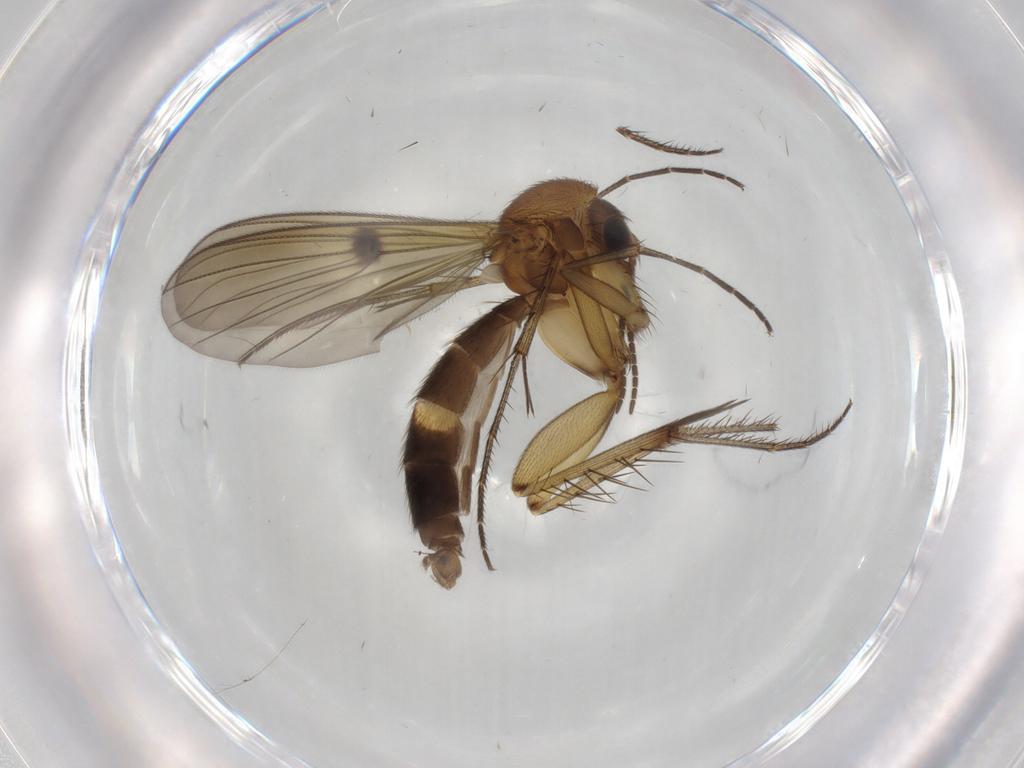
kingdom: Animalia
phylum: Arthropoda
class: Insecta
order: Diptera
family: Mycetophilidae
